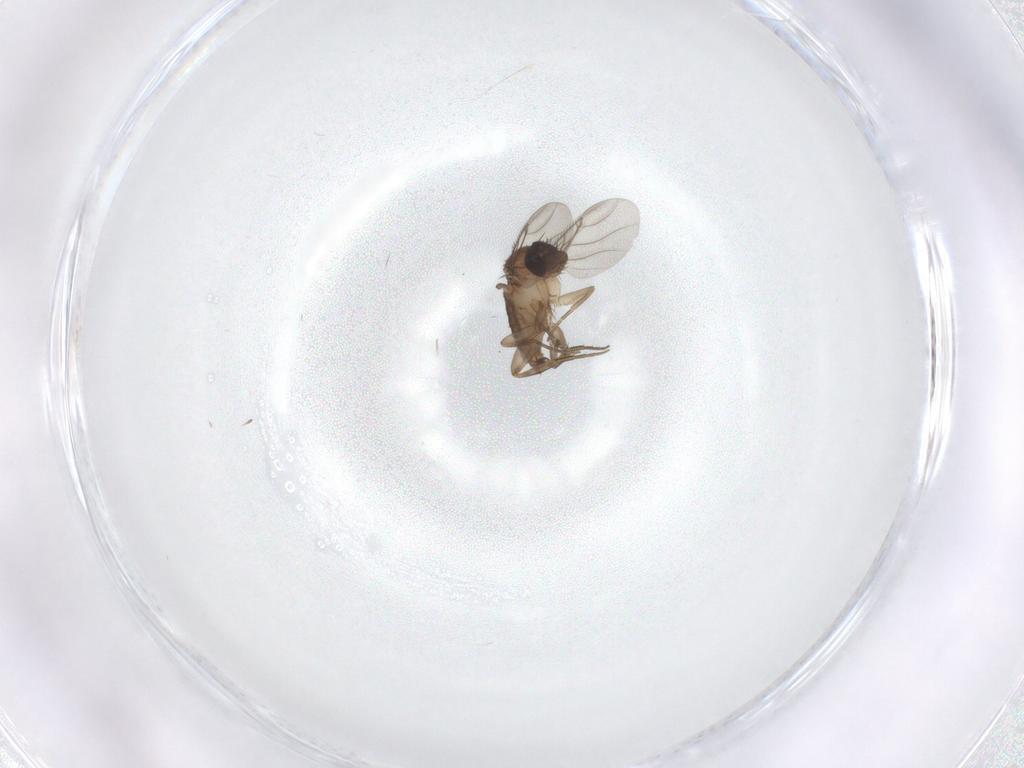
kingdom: Animalia
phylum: Arthropoda
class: Insecta
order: Diptera
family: Phoridae
